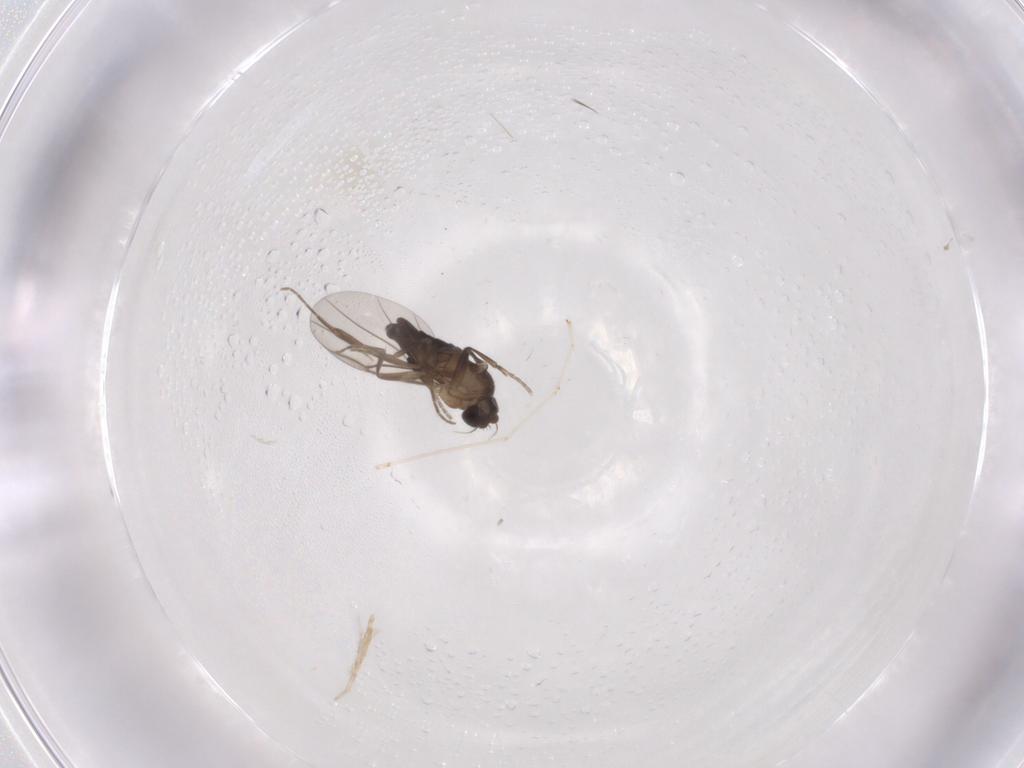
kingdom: Animalia
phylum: Arthropoda
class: Insecta
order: Diptera
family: Cecidomyiidae
